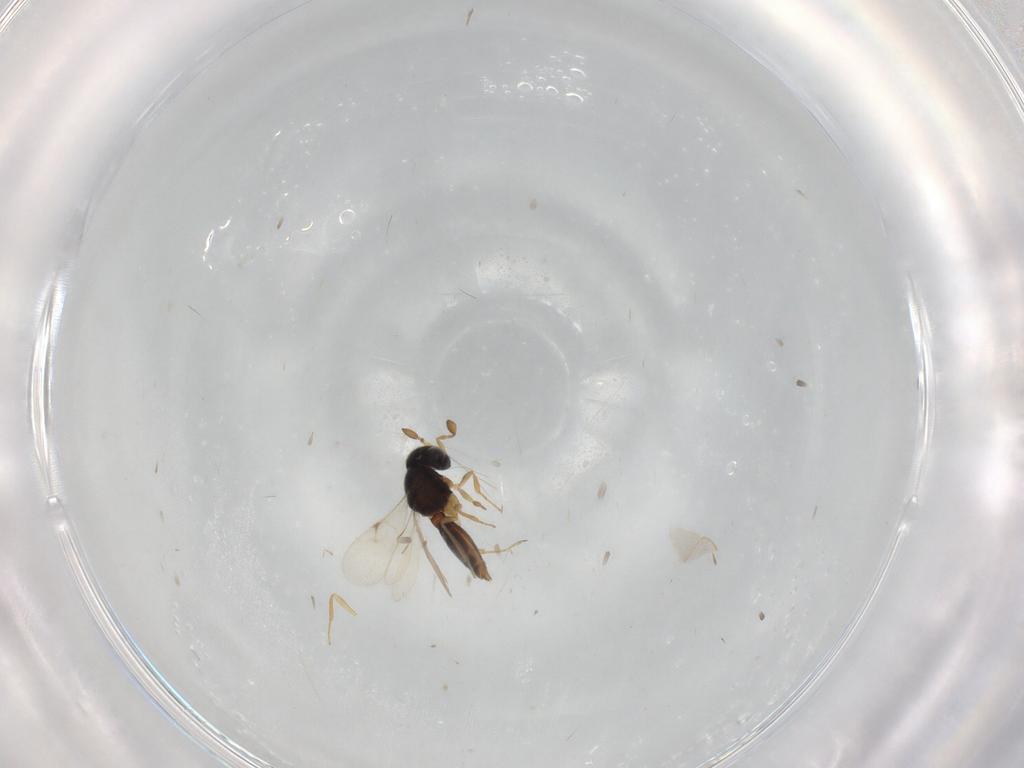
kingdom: Animalia
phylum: Arthropoda
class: Insecta
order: Hymenoptera
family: Scelionidae
